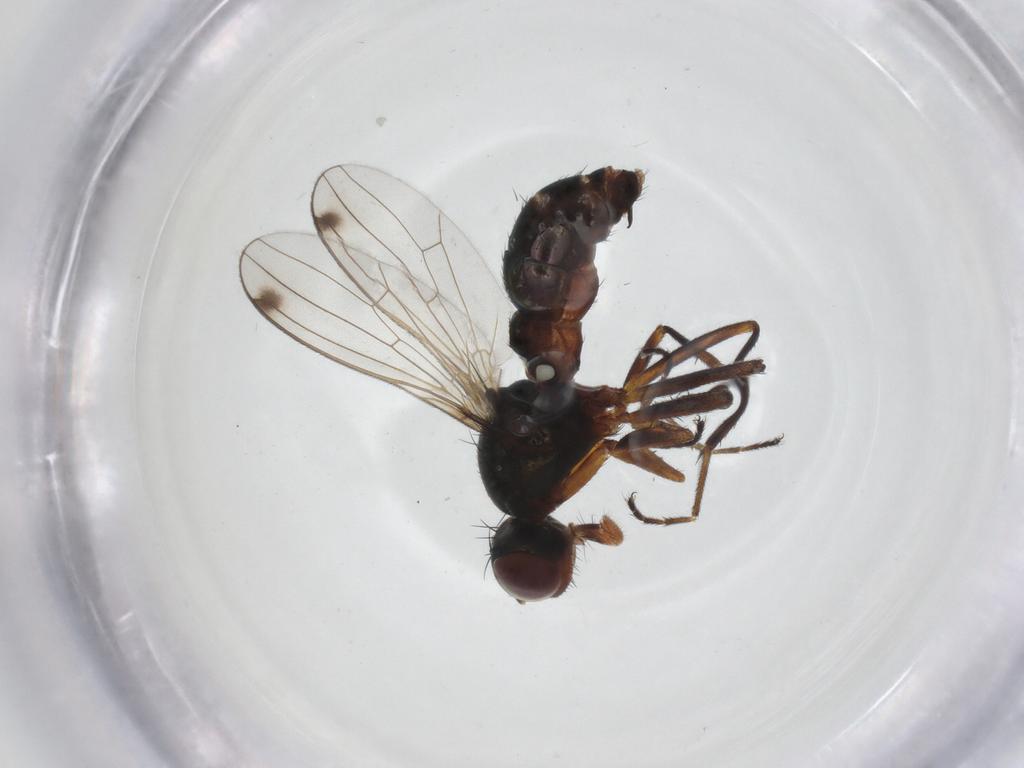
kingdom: Animalia
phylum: Arthropoda
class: Insecta
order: Diptera
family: Sepsidae
